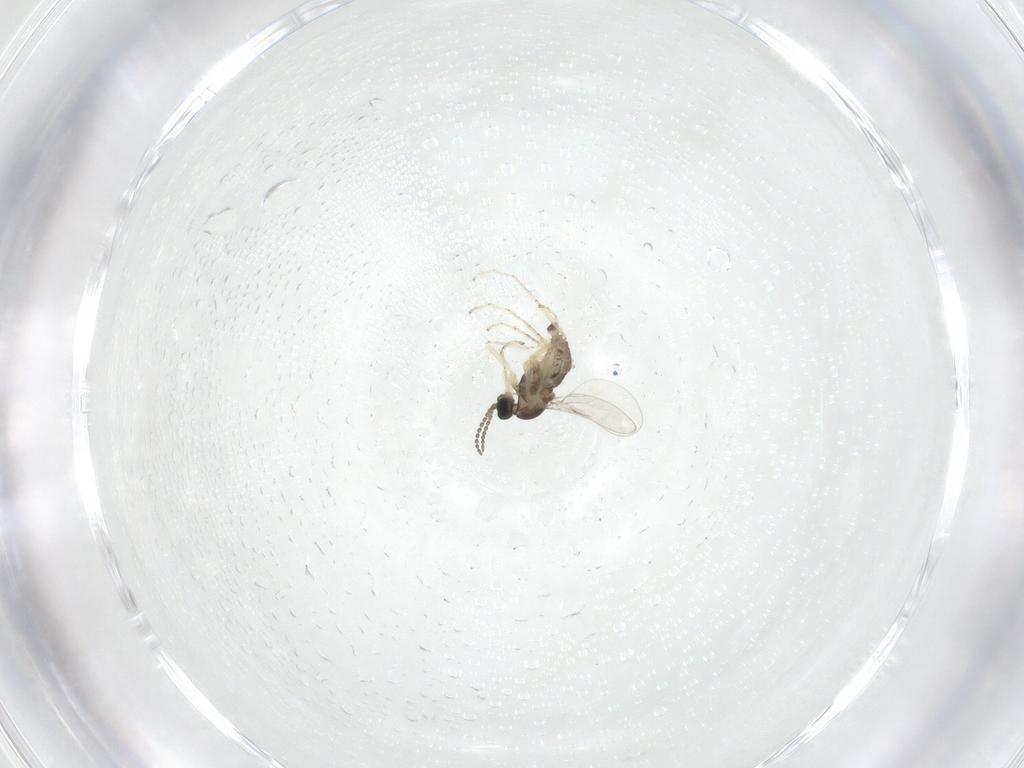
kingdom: Animalia
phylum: Arthropoda
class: Insecta
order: Diptera
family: Cecidomyiidae
